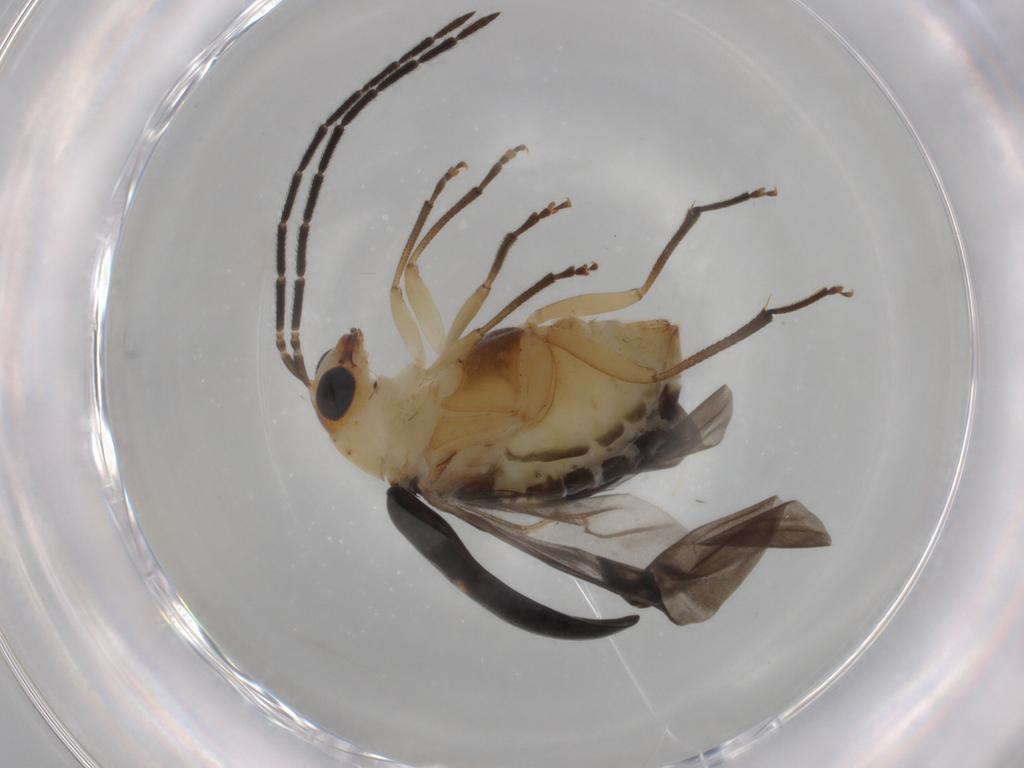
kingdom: Animalia
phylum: Arthropoda
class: Insecta
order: Coleoptera
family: Chrysomelidae
